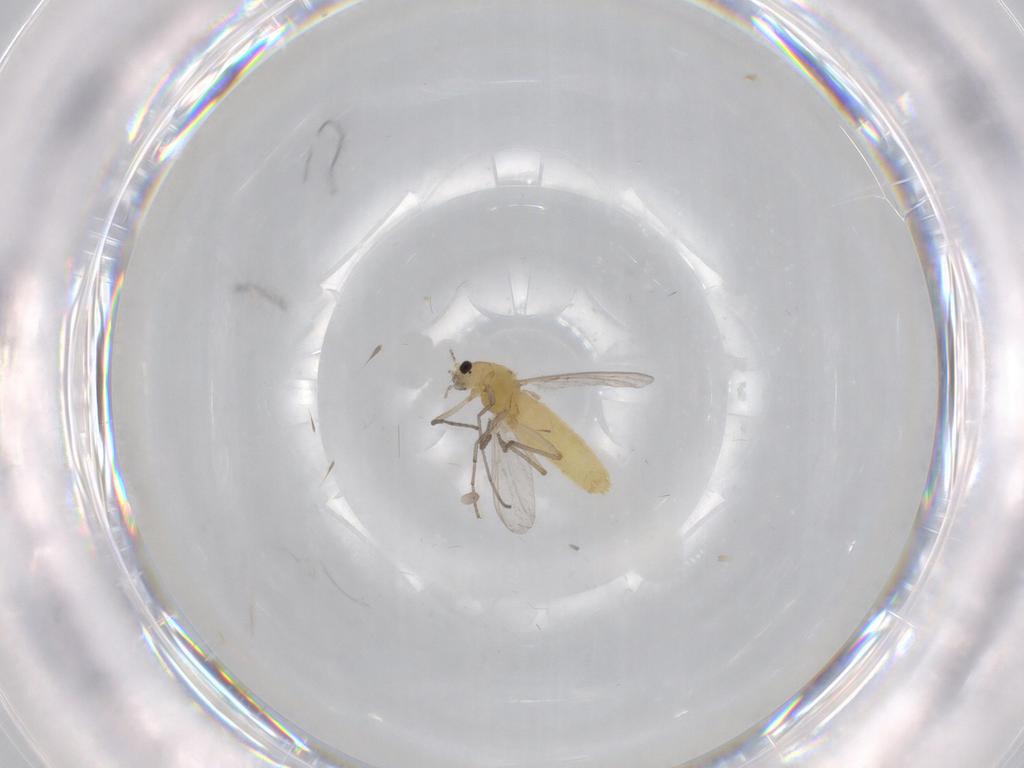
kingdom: Animalia
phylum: Arthropoda
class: Insecta
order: Diptera
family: Chironomidae
